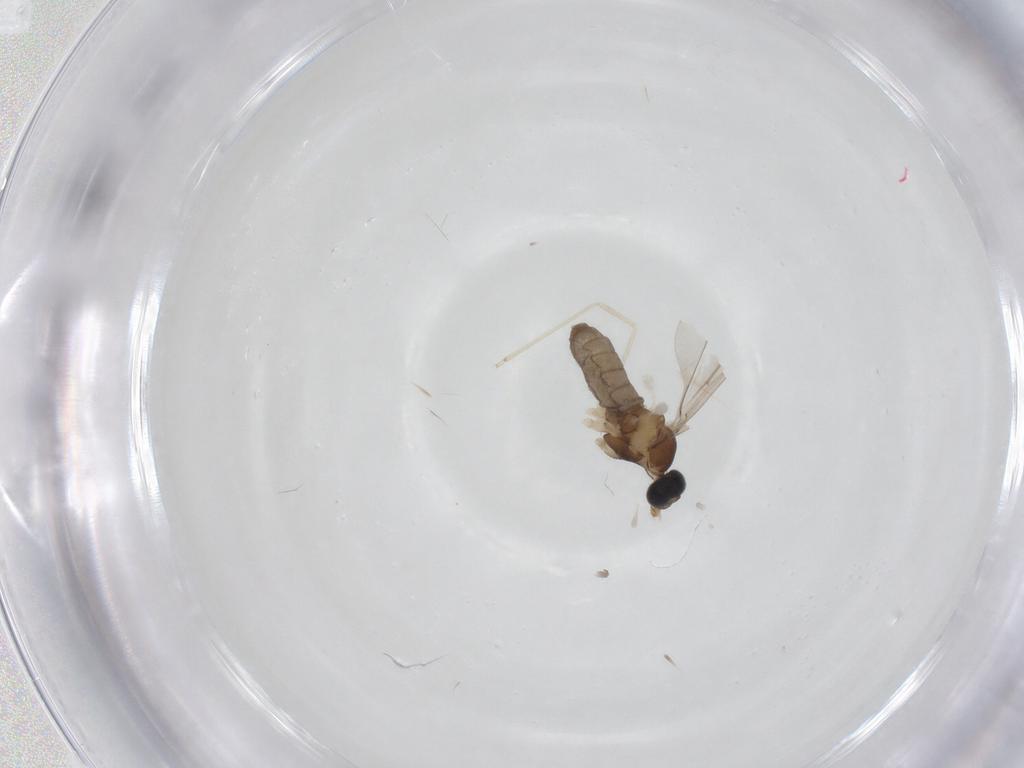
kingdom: Animalia
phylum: Arthropoda
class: Insecta
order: Diptera
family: Cecidomyiidae
